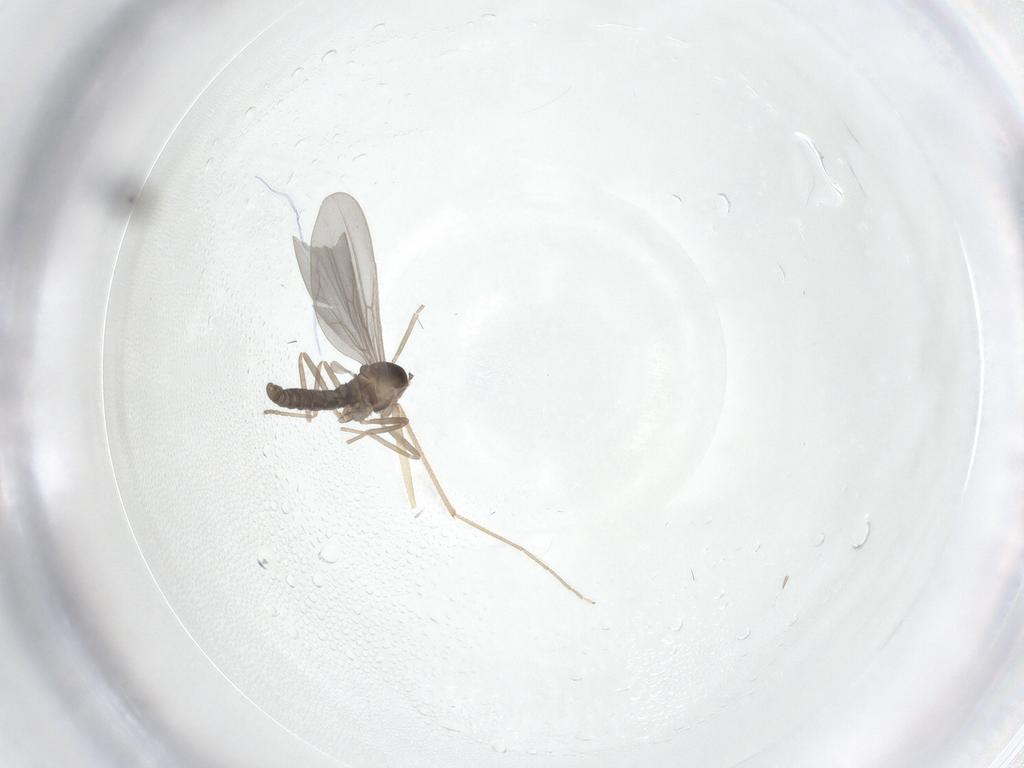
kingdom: Animalia
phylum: Arthropoda
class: Insecta
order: Diptera
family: Chironomidae
